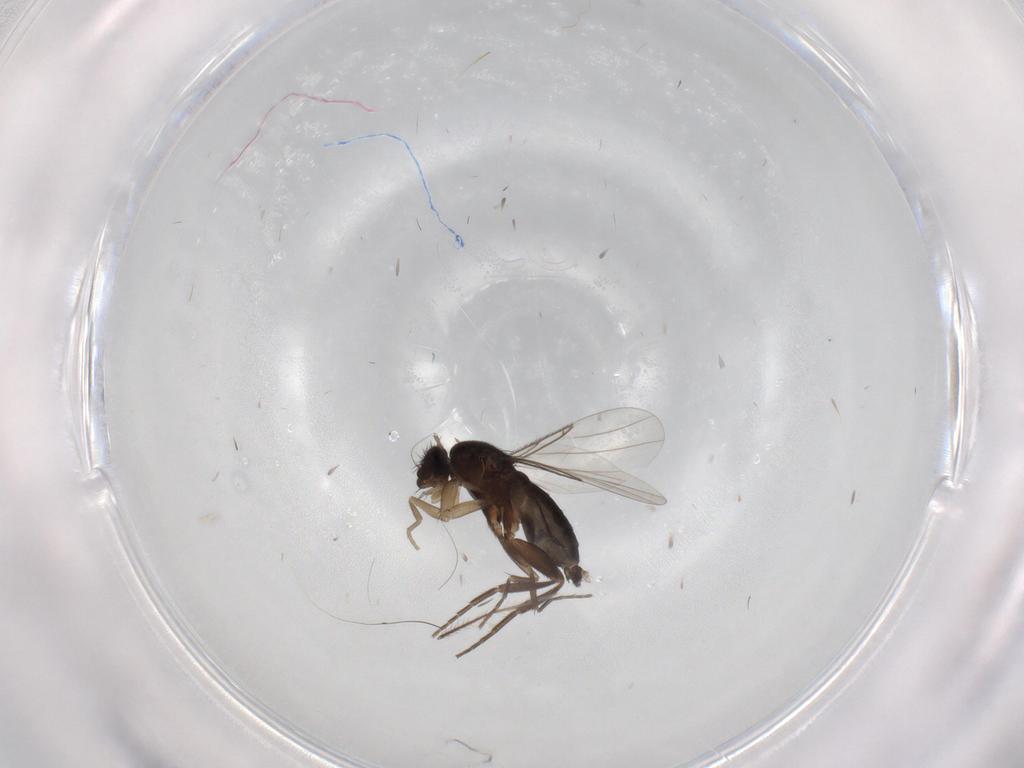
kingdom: Animalia
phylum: Arthropoda
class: Insecta
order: Diptera
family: Phoridae
